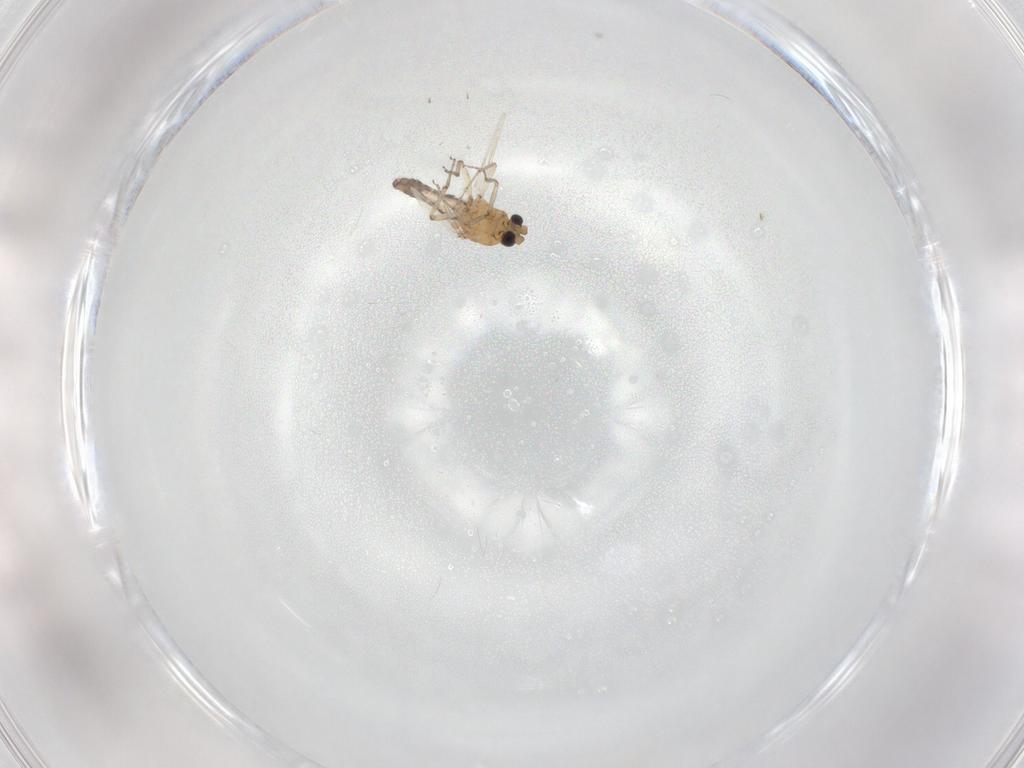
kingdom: Animalia
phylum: Arthropoda
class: Insecta
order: Diptera
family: Ceratopogonidae
